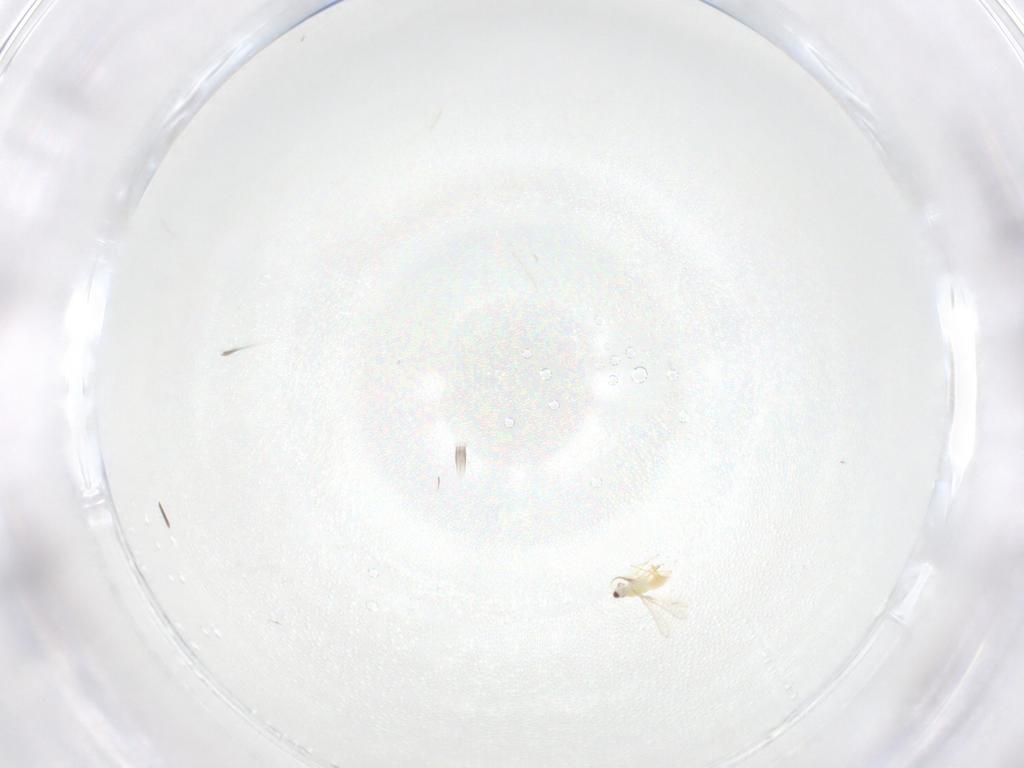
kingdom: Animalia
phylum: Arthropoda
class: Insecta
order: Hymenoptera
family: Mymaridae
